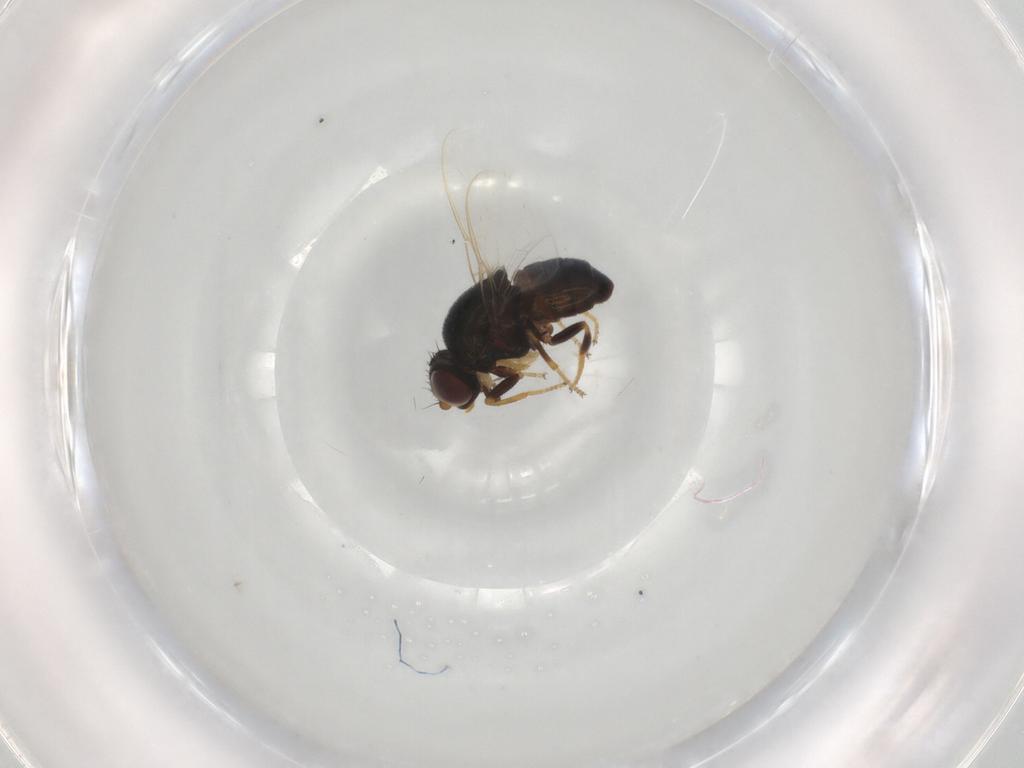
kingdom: Animalia
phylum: Arthropoda
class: Insecta
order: Diptera
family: Chloropidae
